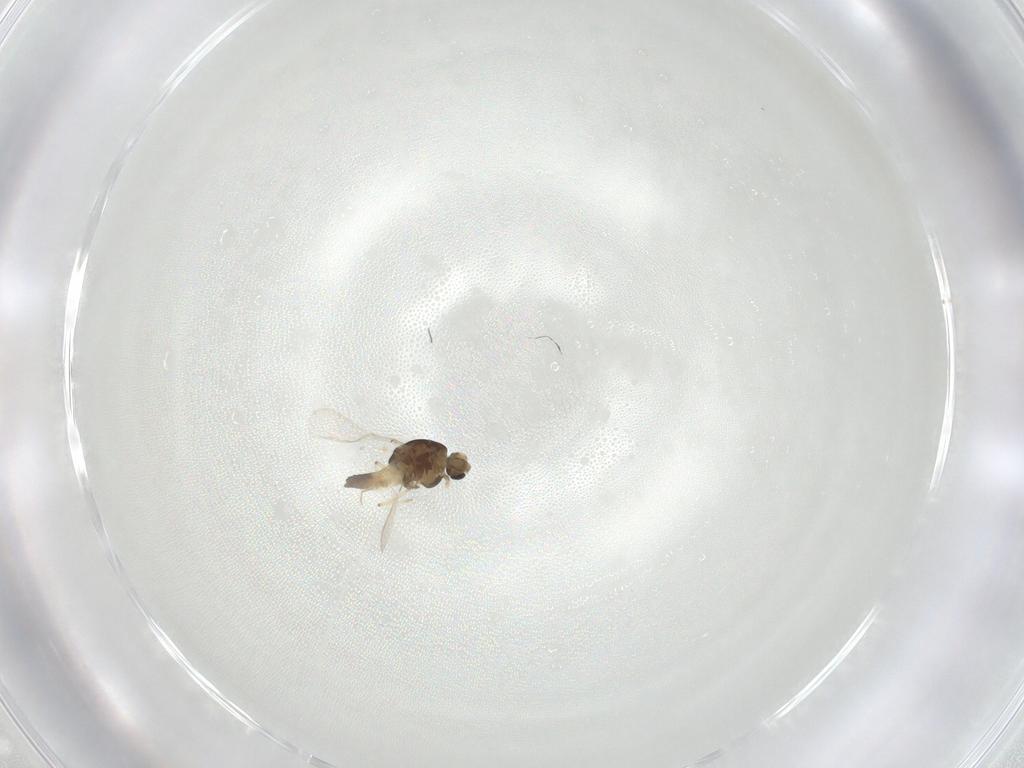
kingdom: Animalia
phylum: Arthropoda
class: Insecta
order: Diptera
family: Chironomidae
